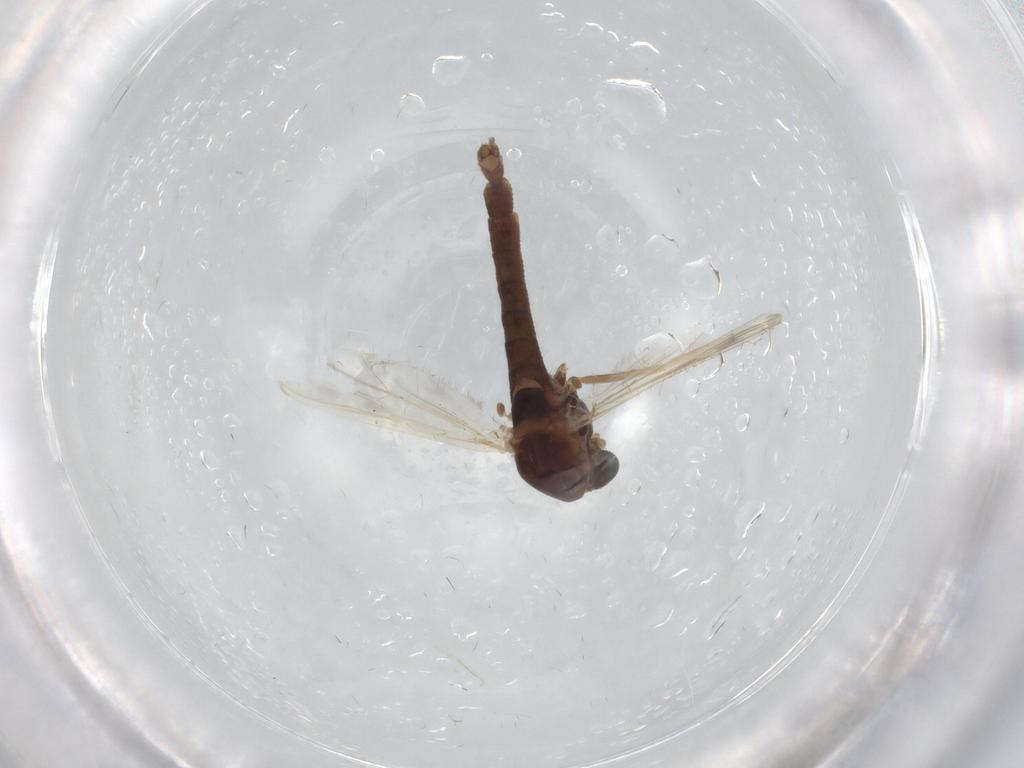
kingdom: Animalia
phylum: Arthropoda
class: Insecta
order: Diptera
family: Chironomidae
